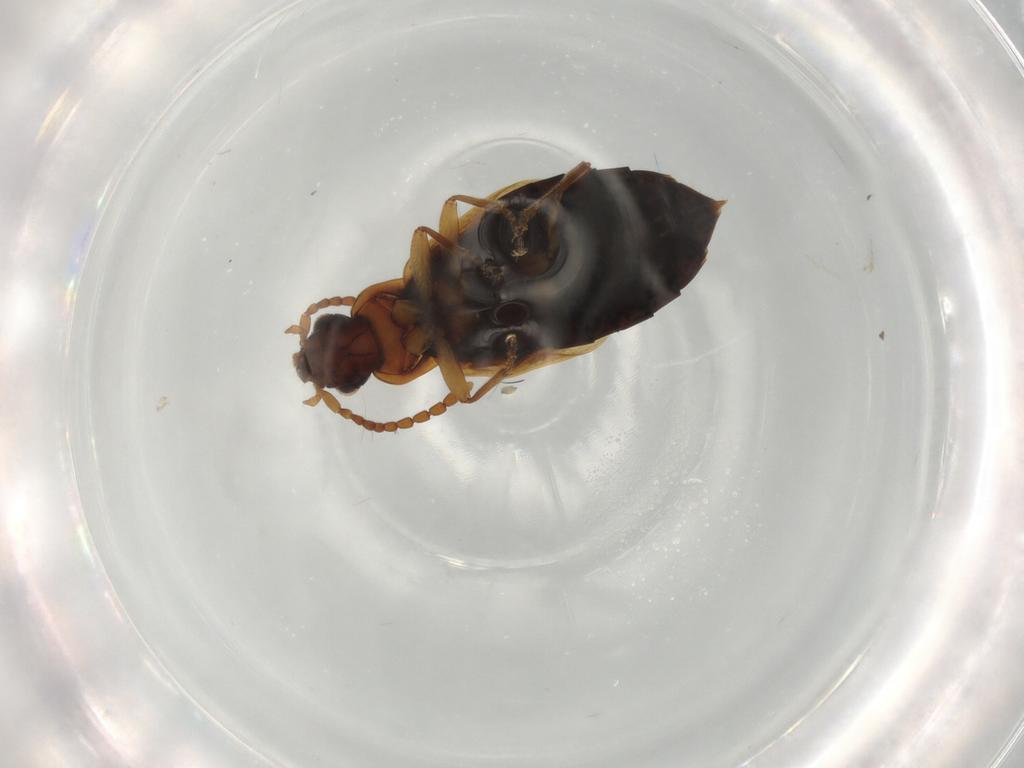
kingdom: Animalia
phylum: Arthropoda
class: Insecta
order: Coleoptera
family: Staphylinidae
